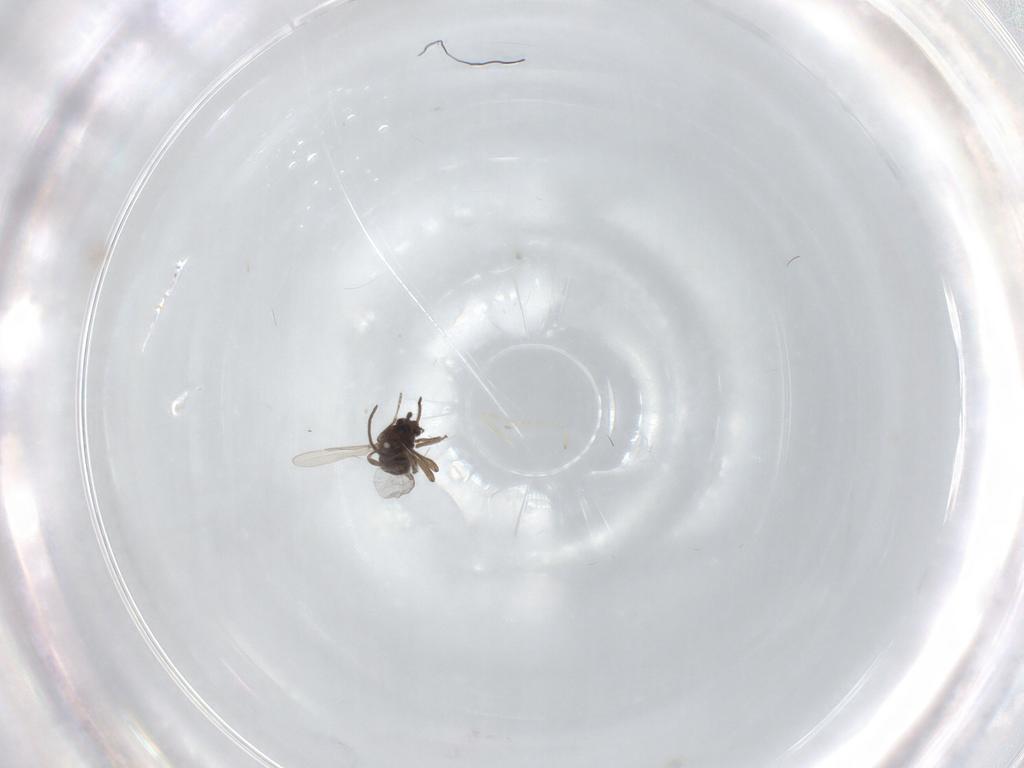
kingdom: Animalia
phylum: Arthropoda
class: Insecta
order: Diptera
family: Ceratopogonidae
